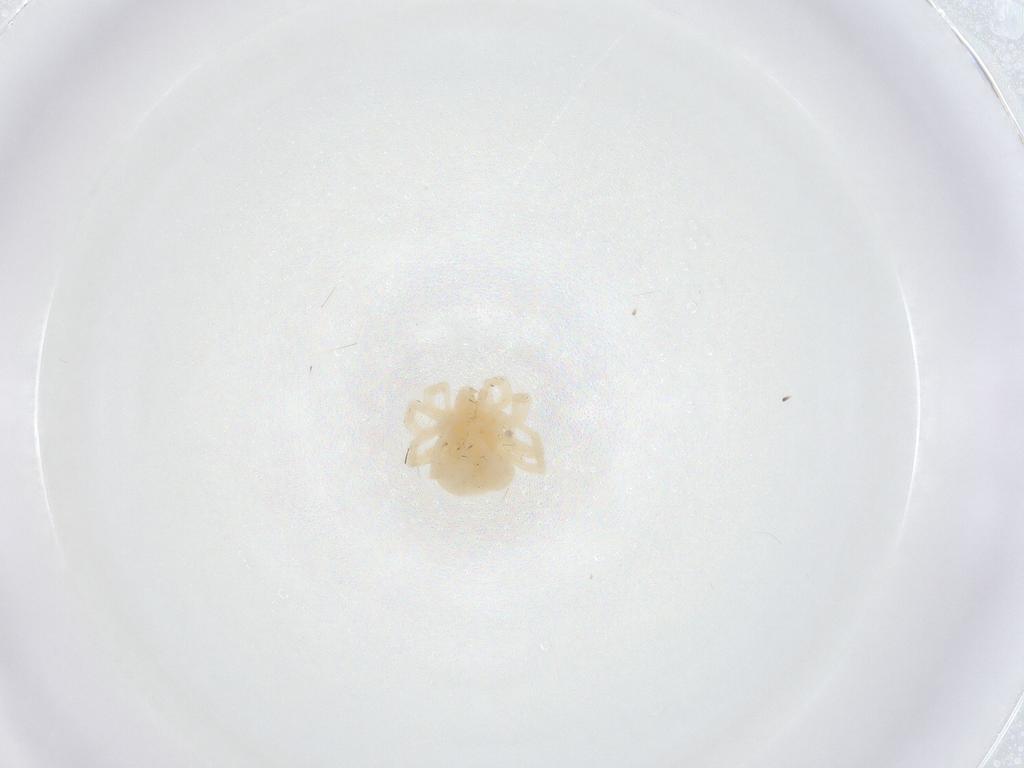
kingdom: Animalia
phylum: Arthropoda
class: Arachnida
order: Trombidiformes
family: Anystidae
